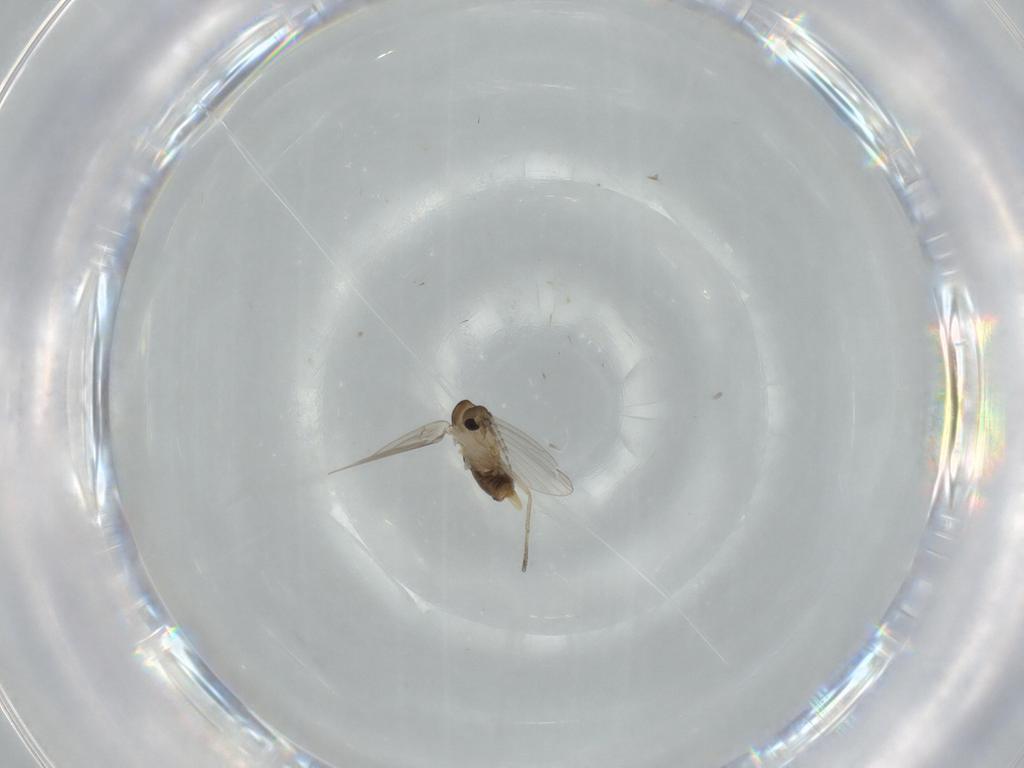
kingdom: Animalia
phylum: Arthropoda
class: Insecta
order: Diptera
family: Psychodidae
